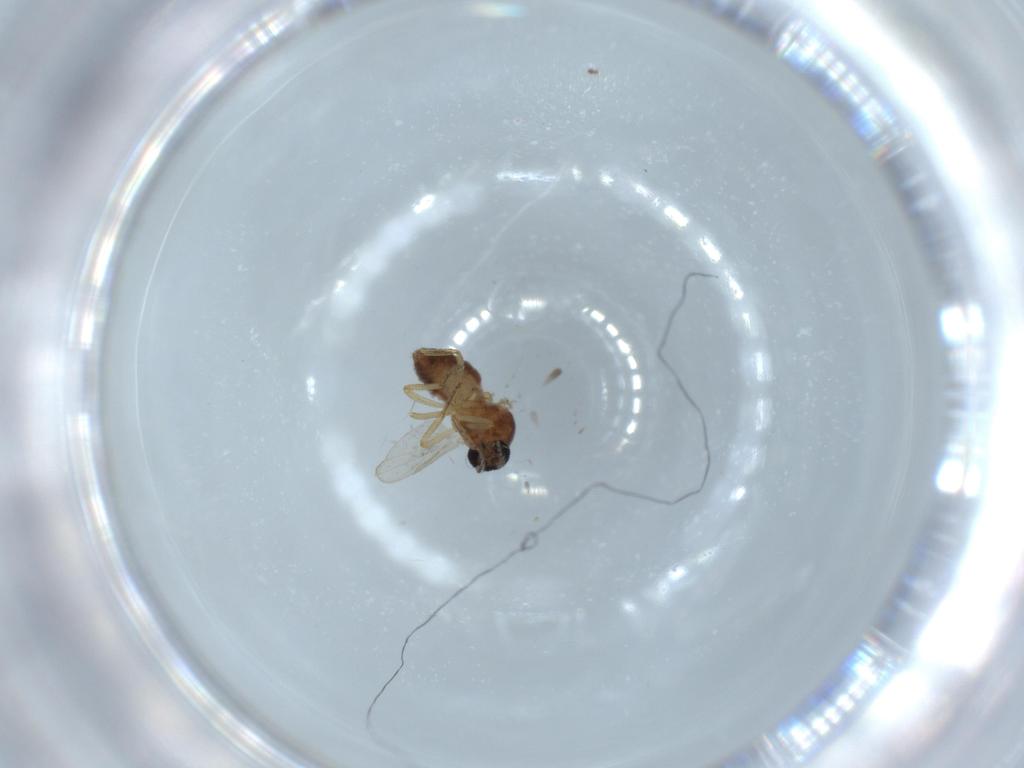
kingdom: Animalia
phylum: Arthropoda
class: Insecta
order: Diptera
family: Ceratopogonidae
